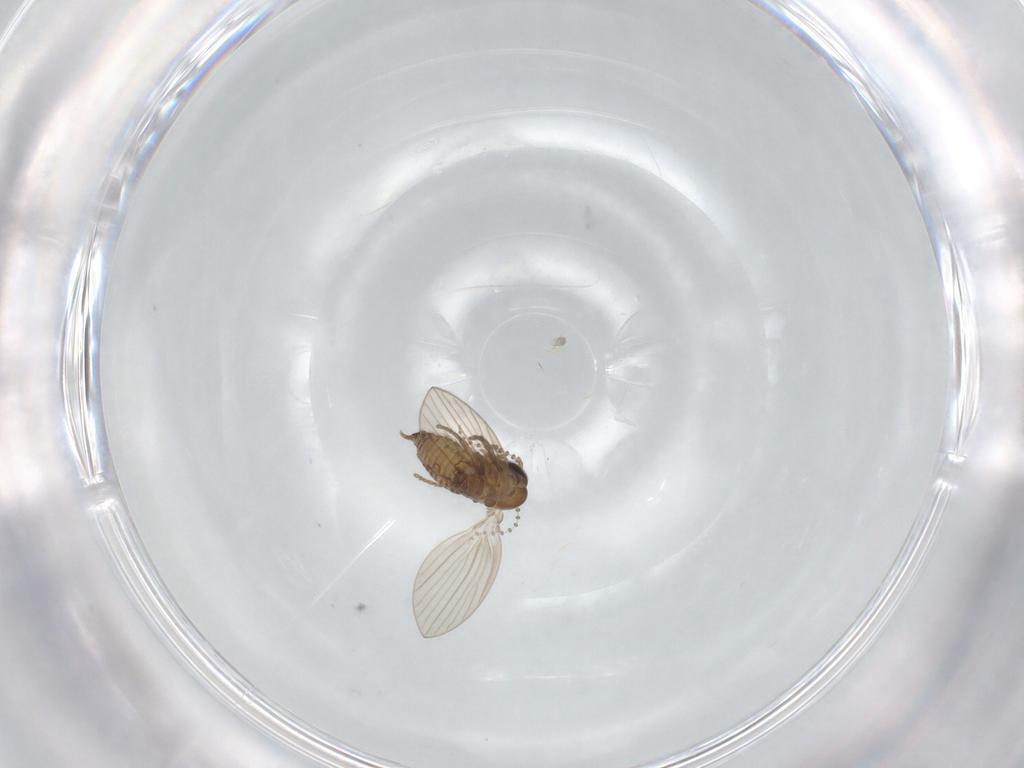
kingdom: Animalia
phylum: Arthropoda
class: Insecta
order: Diptera
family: Psychodidae
